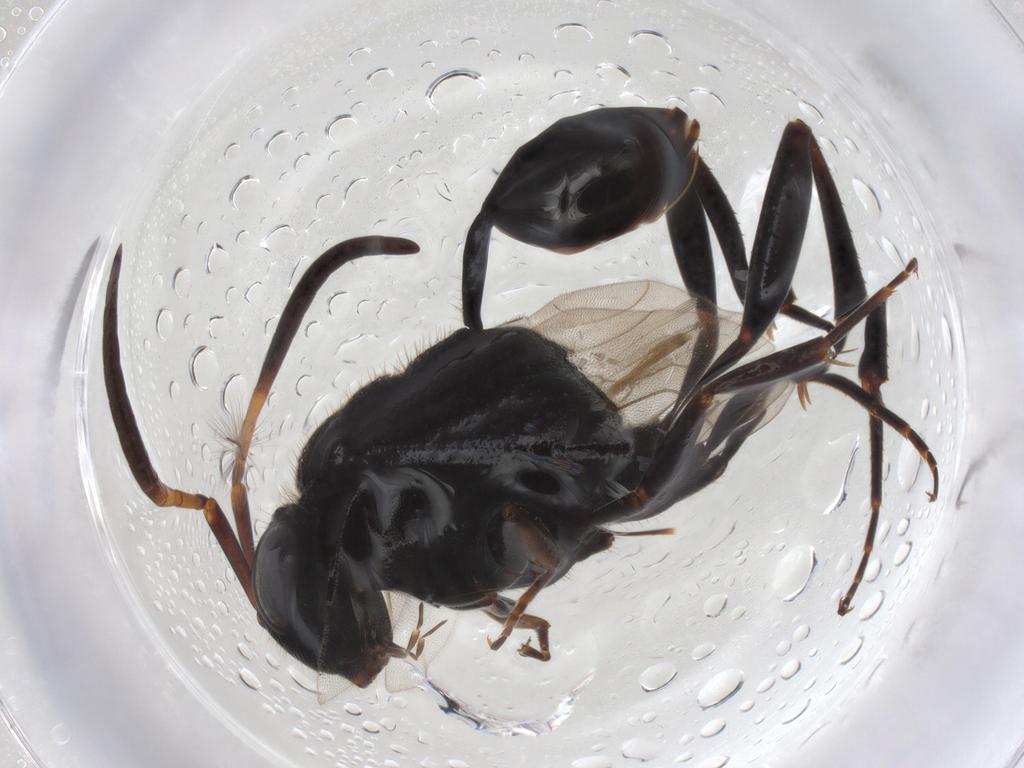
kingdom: Animalia
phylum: Arthropoda
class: Insecta
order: Hymenoptera
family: Evaniidae
